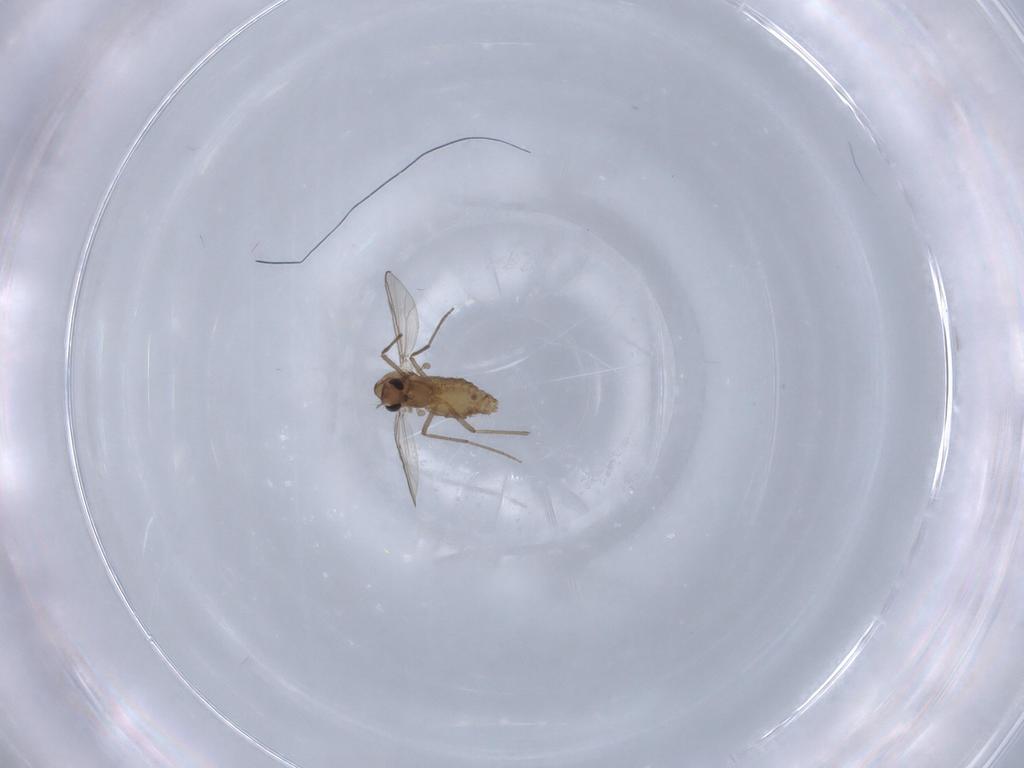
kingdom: Animalia
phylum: Arthropoda
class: Insecta
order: Diptera
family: Chironomidae
